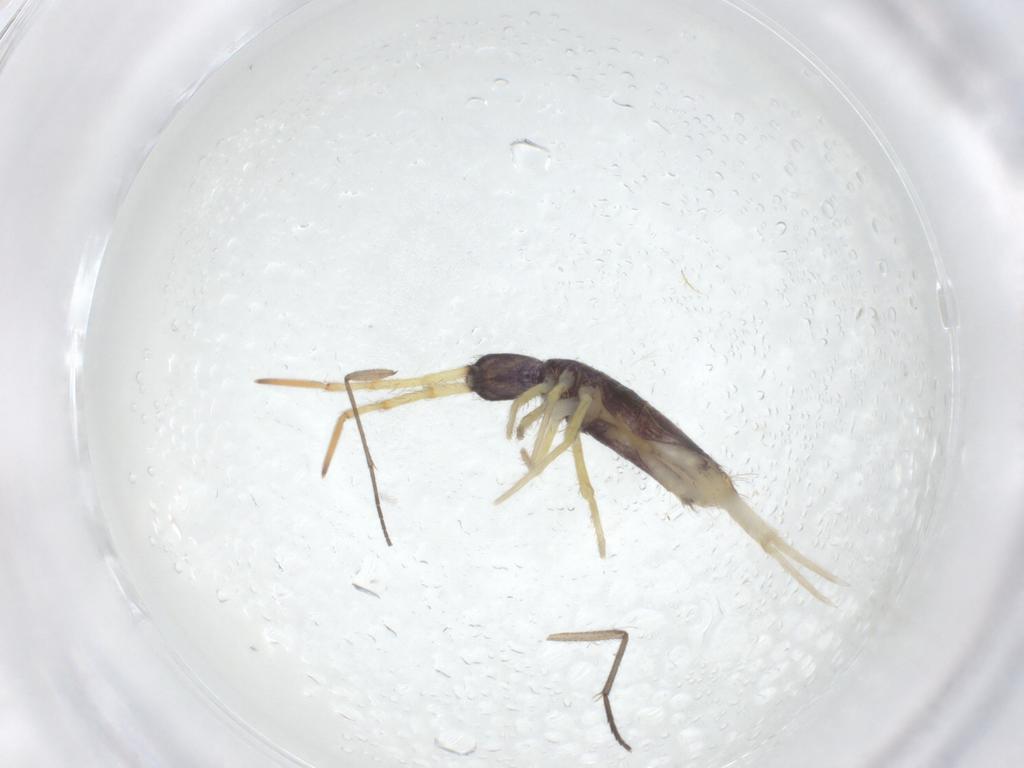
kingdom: Animalia
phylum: Arthropoda
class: Collembola
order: Entomobryomorpha
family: Entomobryidae
